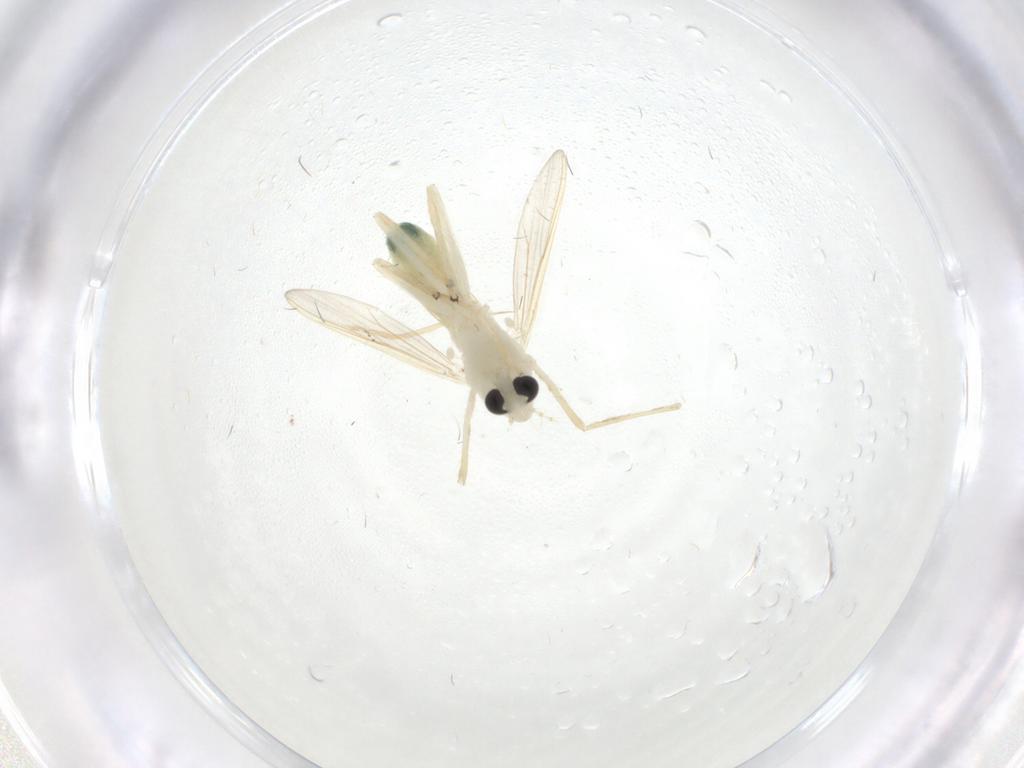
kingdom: Animalia
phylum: Arthropoda
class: Insecta
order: Diptera
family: Chironomidae
